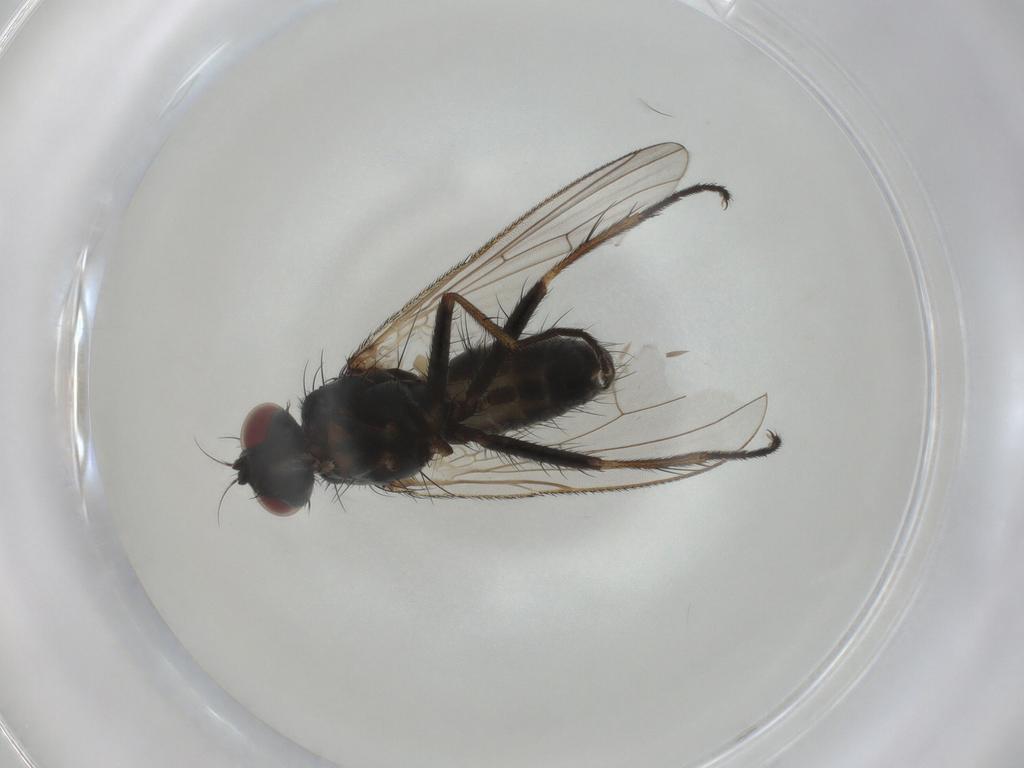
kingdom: Animalia
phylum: Arthropoda
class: Insecta
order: Diptera
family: Muscidae
